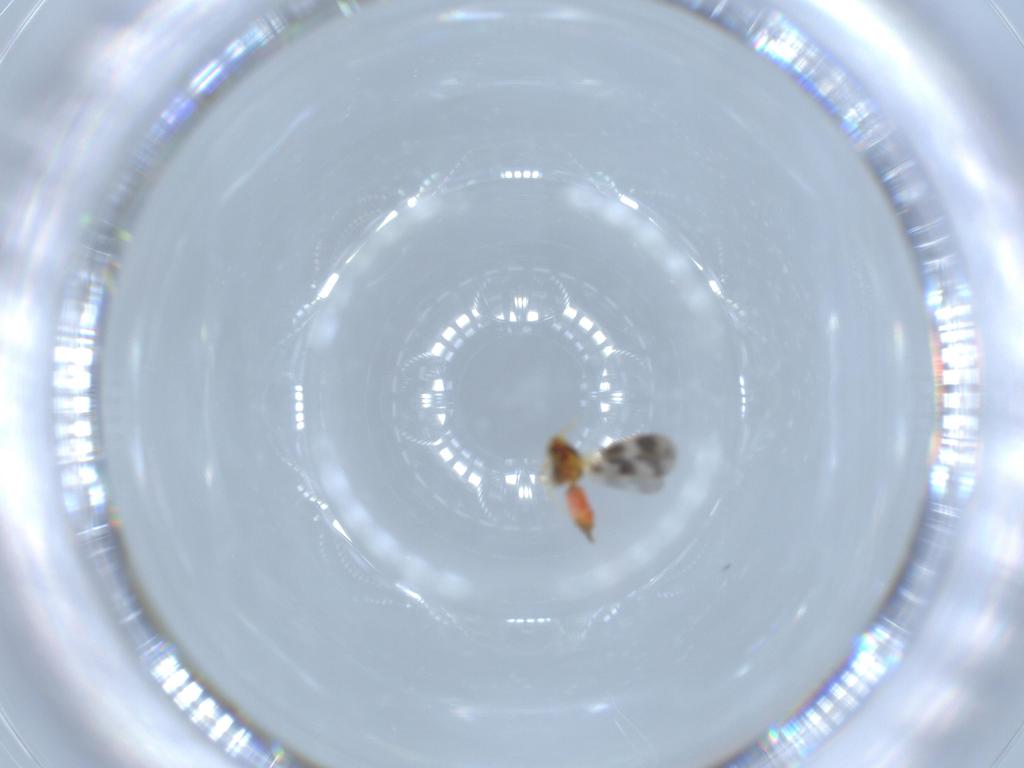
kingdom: Animalia
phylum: Arthropoda
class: Insecta
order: Hemiptera
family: Aleyrodidae
